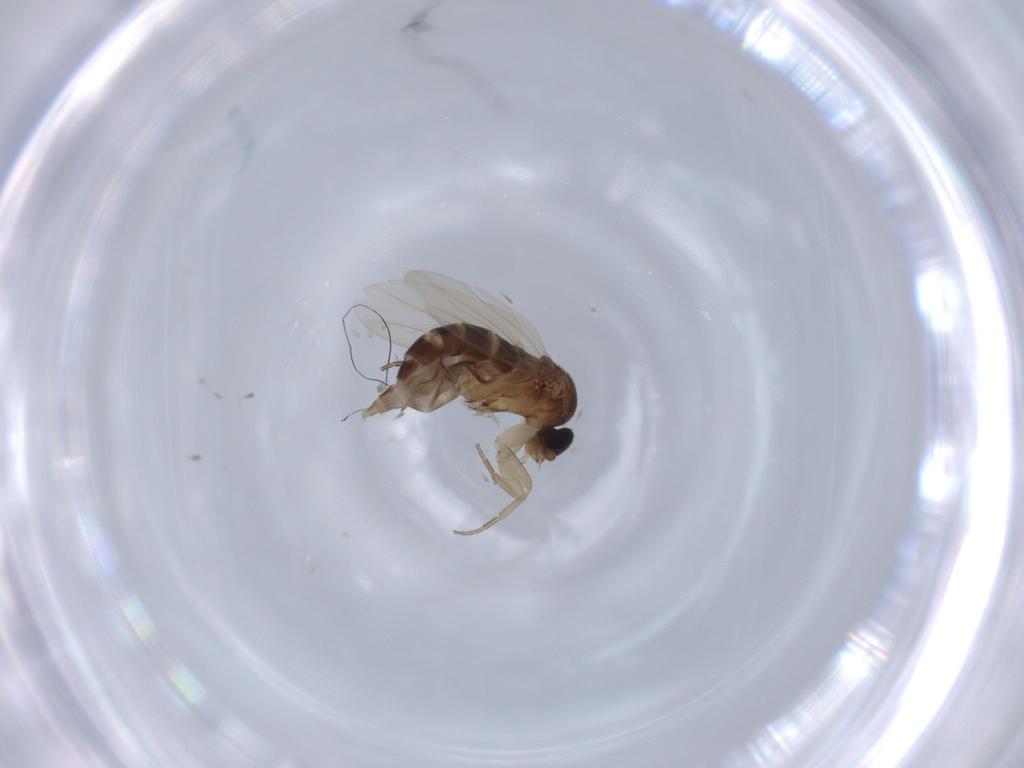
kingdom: Animalia
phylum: Arthropoda
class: Insecta
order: Diptera
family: Phoridae
